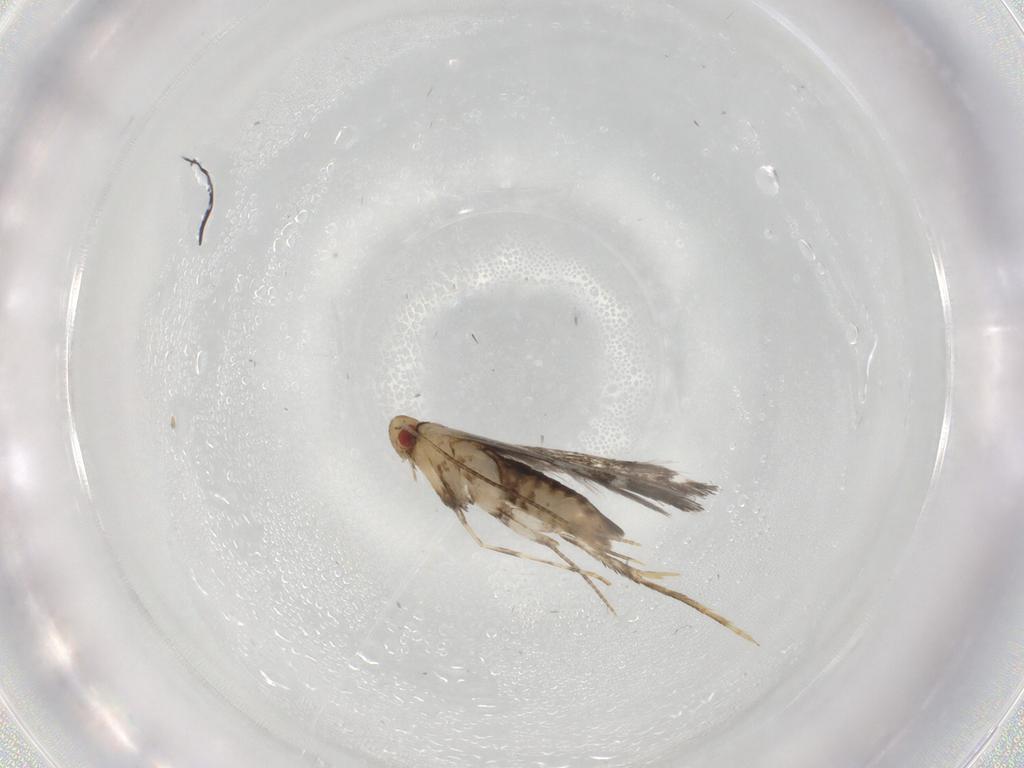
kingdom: Animalia
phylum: Arthropoda
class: Insecta
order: Lepidoptera
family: Gracillariidae
